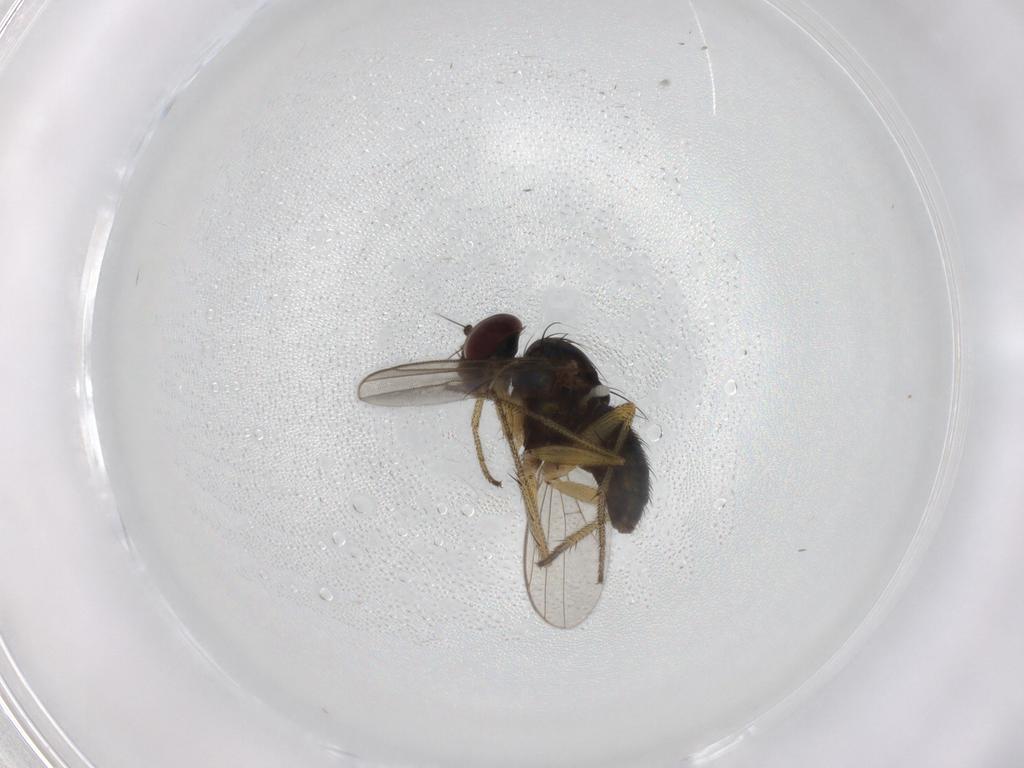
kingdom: Animalia
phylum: Arthropoda
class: Insecta
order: Diptera
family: Dolichopodidae
